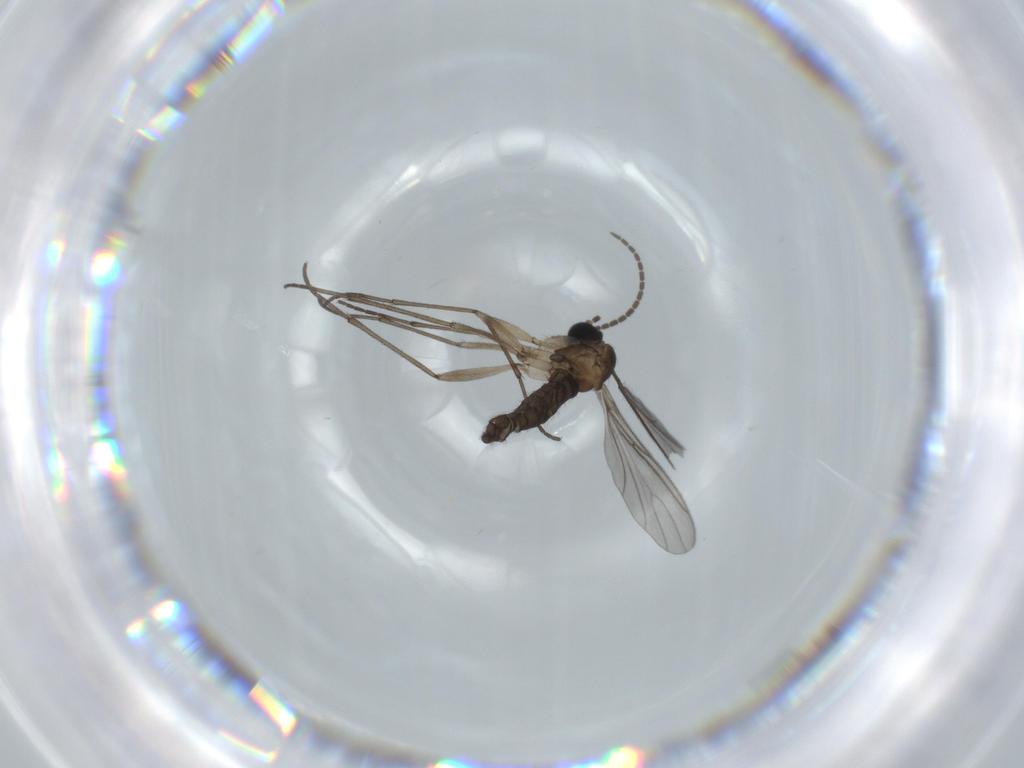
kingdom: Animalia
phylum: Arthropoda
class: Insecta
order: Diptera
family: Sciaridae
